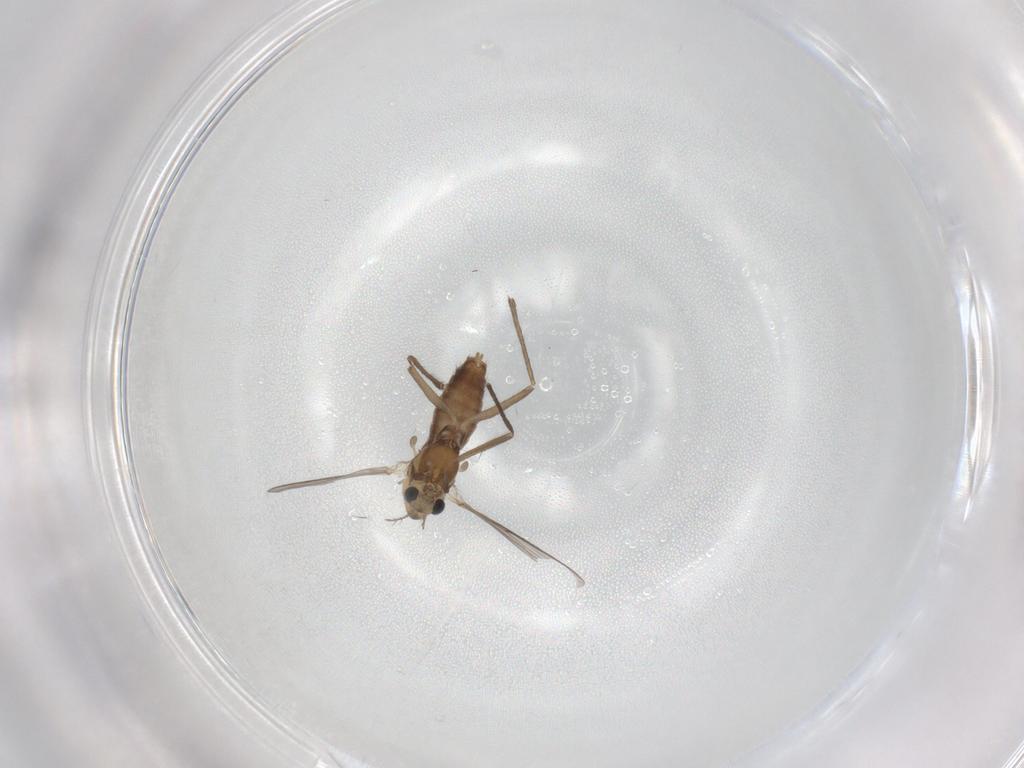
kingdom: Animalia
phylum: Arthropoda
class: Insecta
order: Diptera
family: Chironomidae
